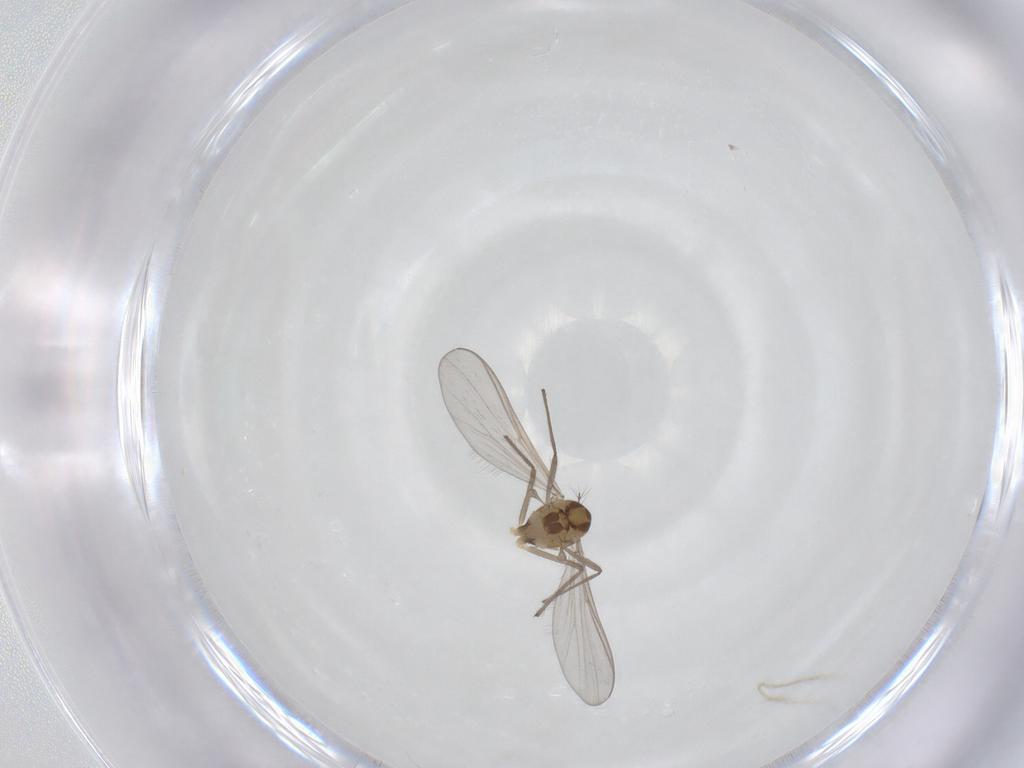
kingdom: Animalia
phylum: Arthropoda
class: Insecta
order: Diptera
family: Chironomidae
